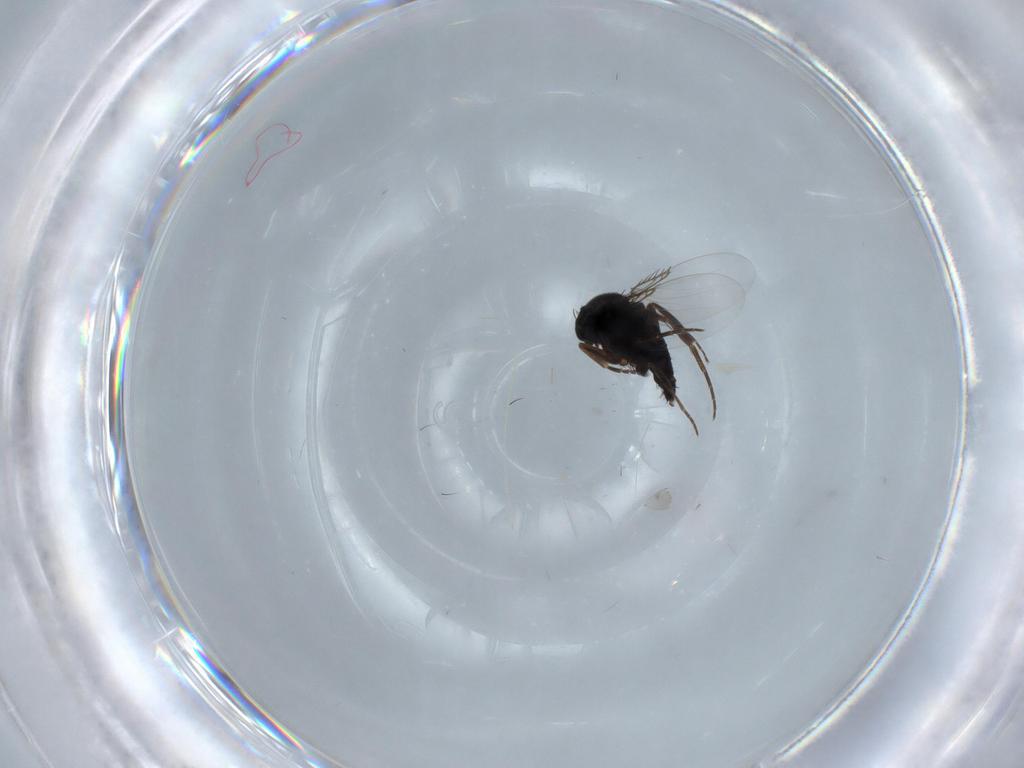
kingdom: Animalia
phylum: Arthropoda
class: Insecta
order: Diptera
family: Phoridae
